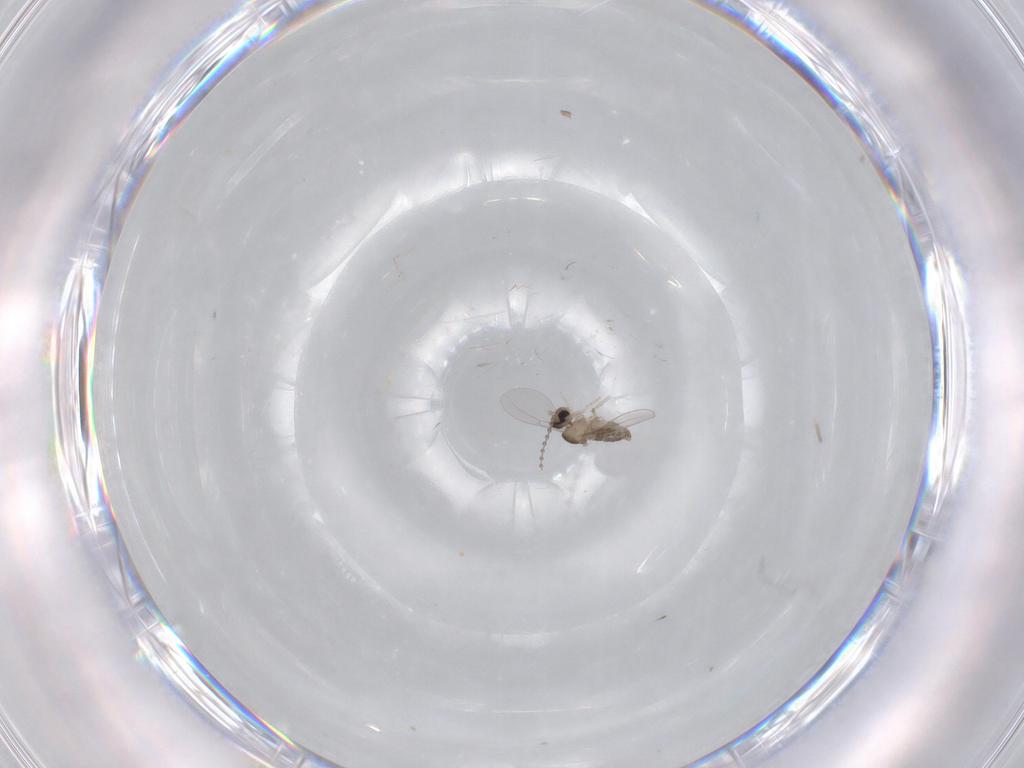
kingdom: Animalia
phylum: Arthropoda
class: Insecta
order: Diptera
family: Cecidomyiidae
